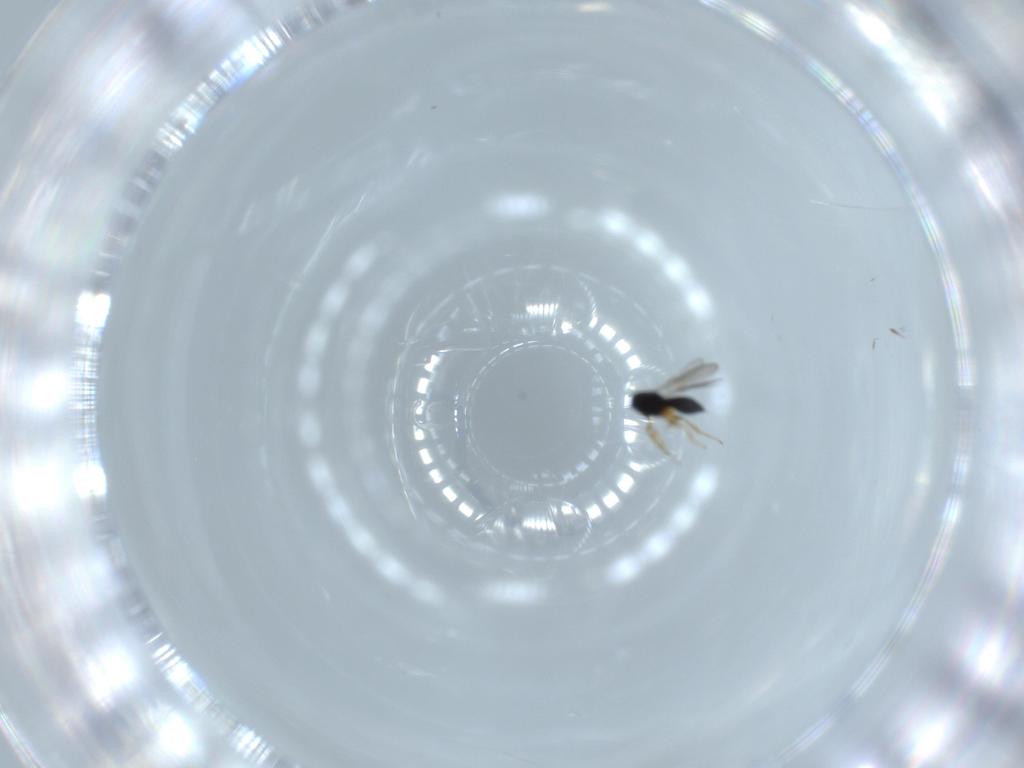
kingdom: Animalia
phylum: Arthropoda
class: Insecta
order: Hymenoptera
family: Scelionidae
